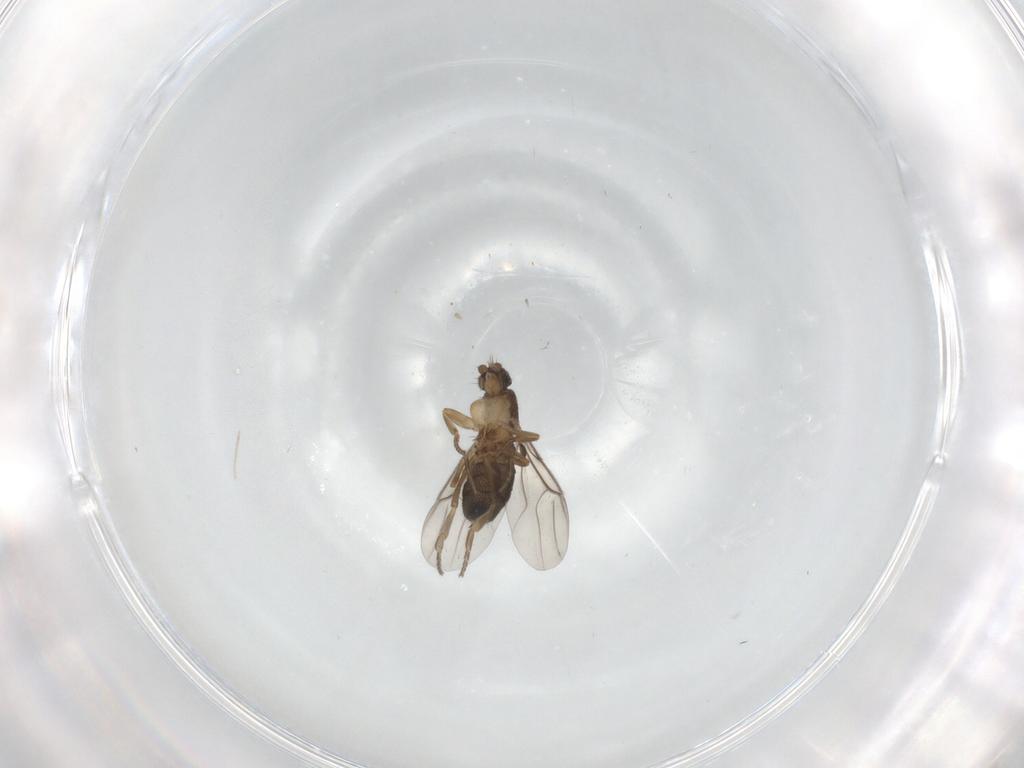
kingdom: Animalia
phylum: Arthropoda
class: Insecta
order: Diptera
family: Phoridae
